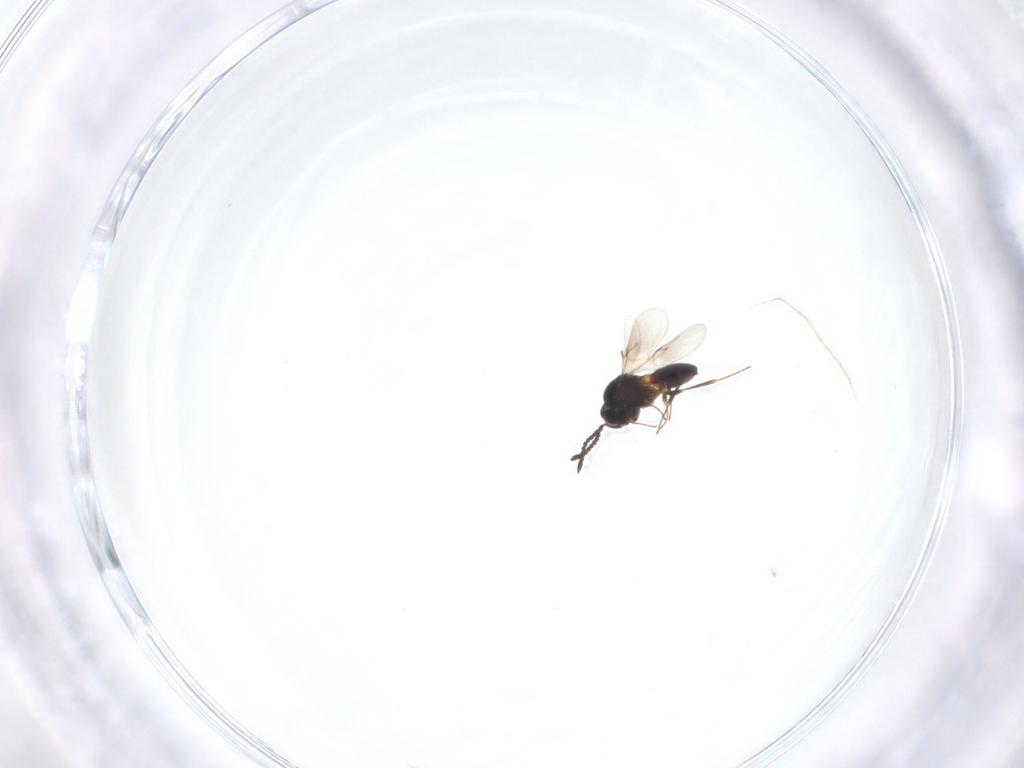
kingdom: Animalia
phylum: Arthropoda
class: Insecta
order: Hymenoptera
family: Scelionidae
